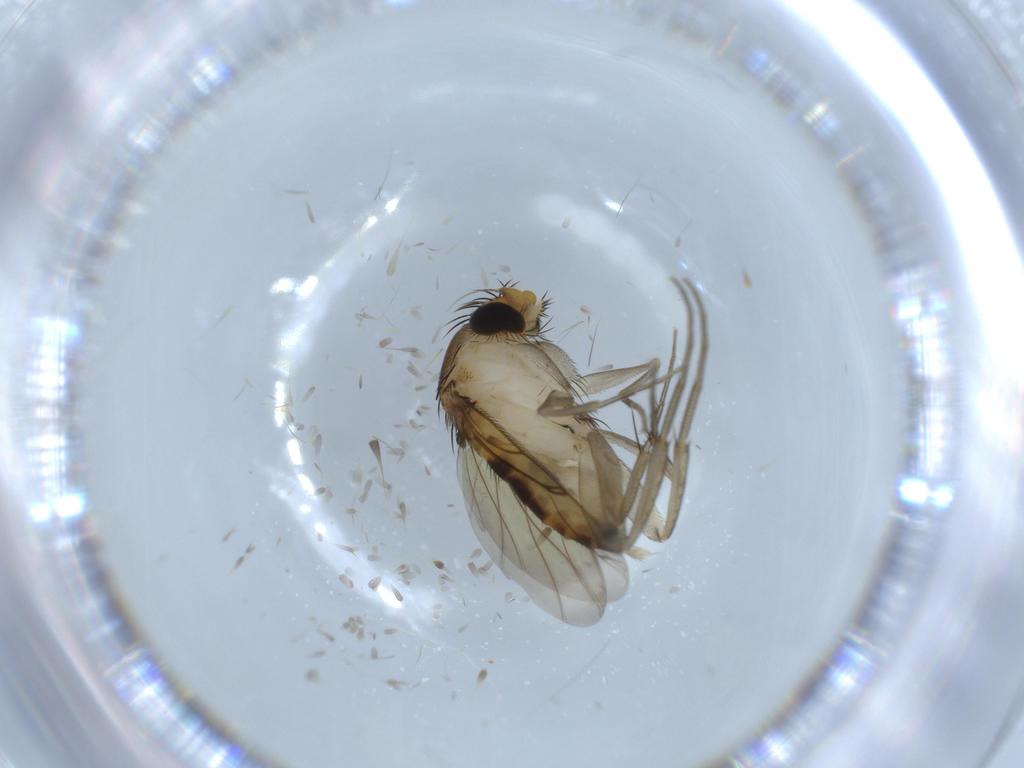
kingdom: Animalia
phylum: Arthropoda
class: Insecta
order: Diptera
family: Phoridae
